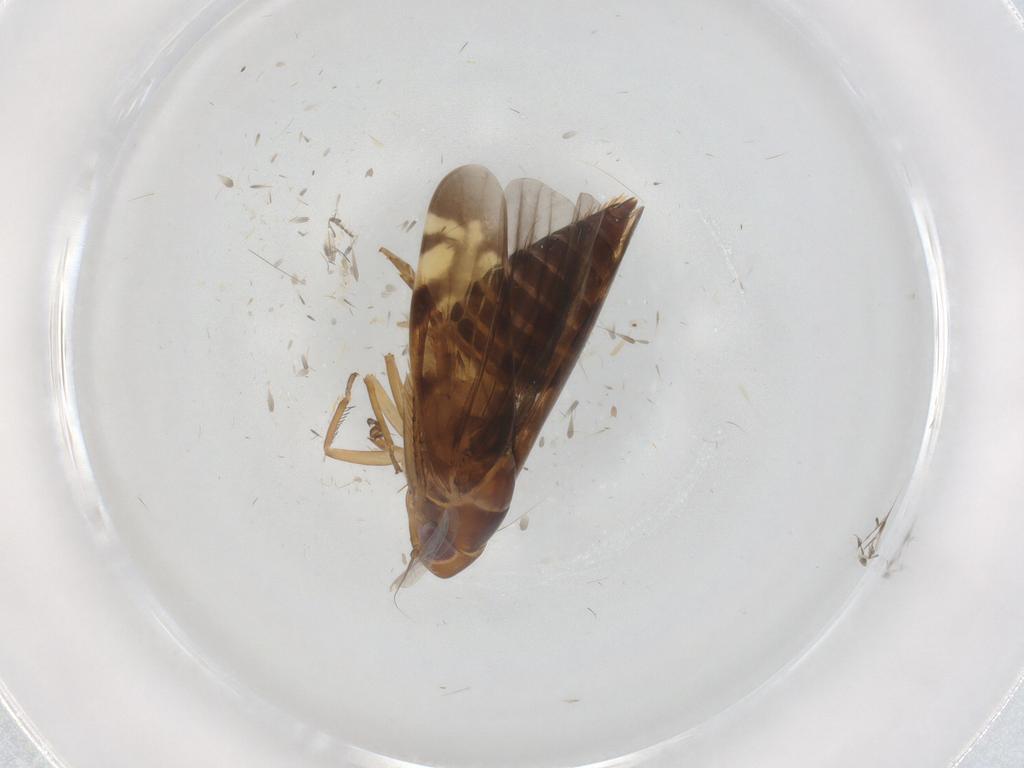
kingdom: Animalia
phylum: Arthropoda
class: Insecta
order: Hemiptera
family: Cicadellidae
